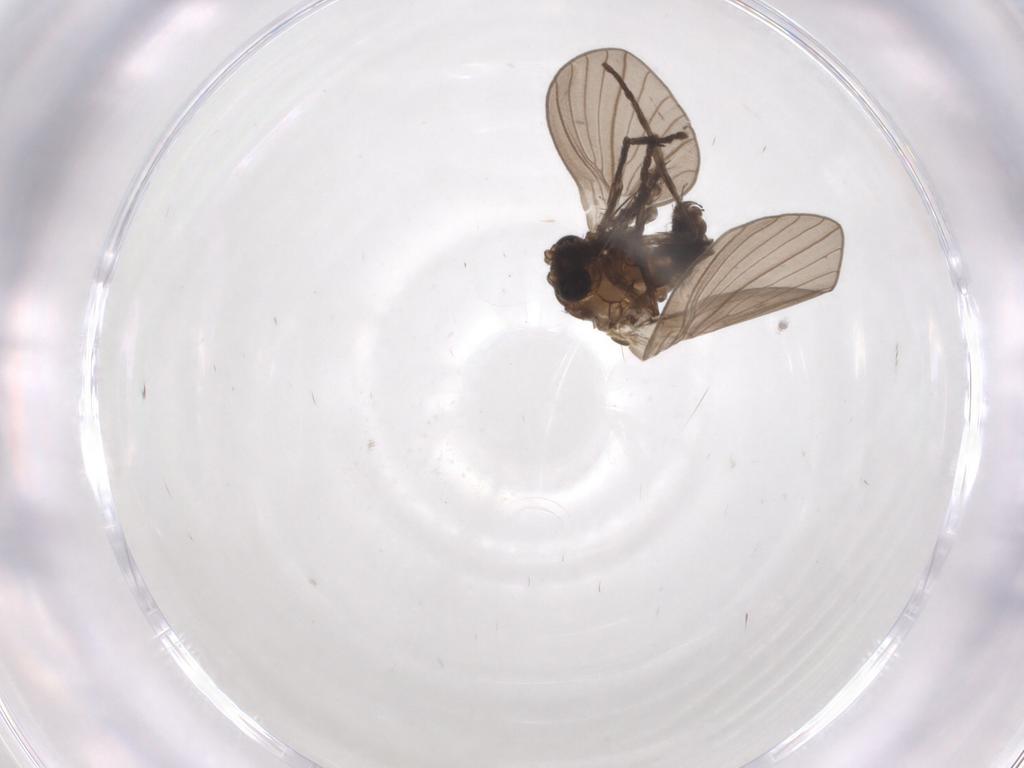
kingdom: Animalia
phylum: Arthropoda
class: Insecta
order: Diptera
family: Psychodidae
